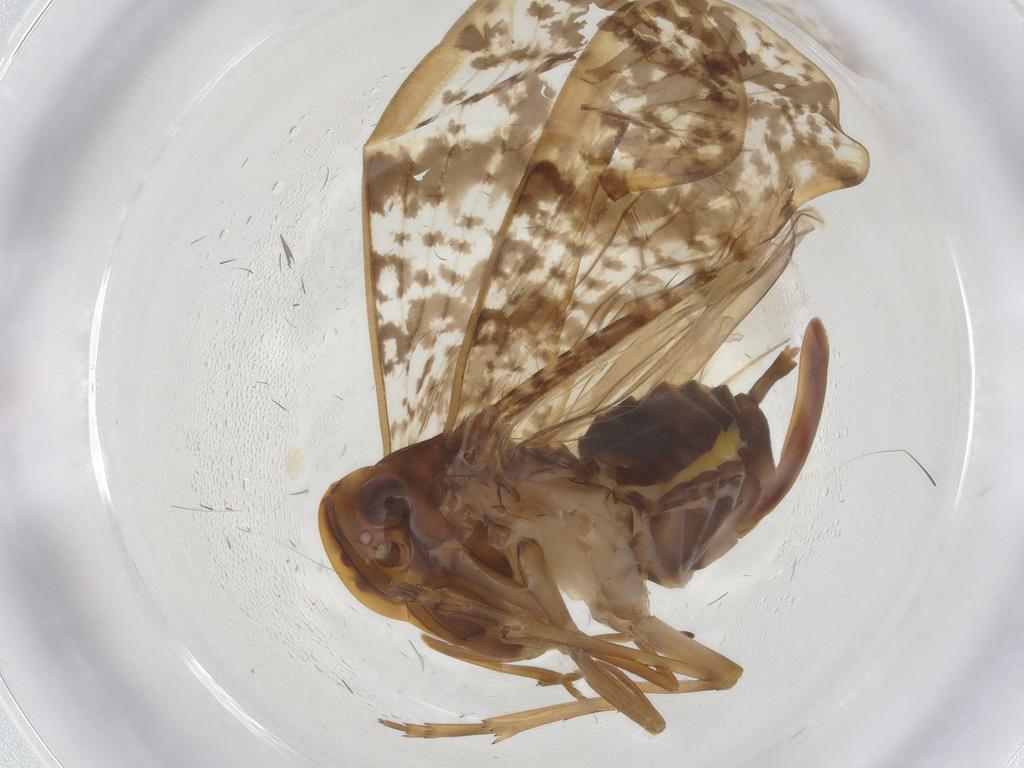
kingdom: Animalia
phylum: Arthropoda
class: Insecta
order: Hemiptera
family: Cixiidae
